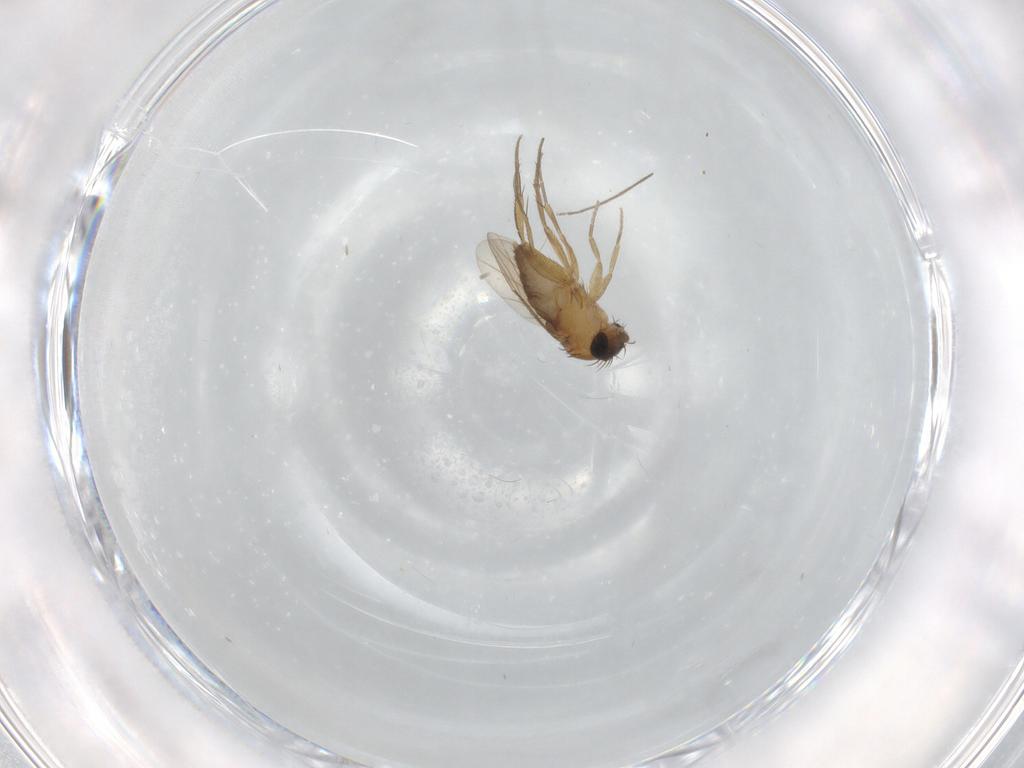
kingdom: Animalia
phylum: Arthropoda
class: Insecta
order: Diptera
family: Phoridae
